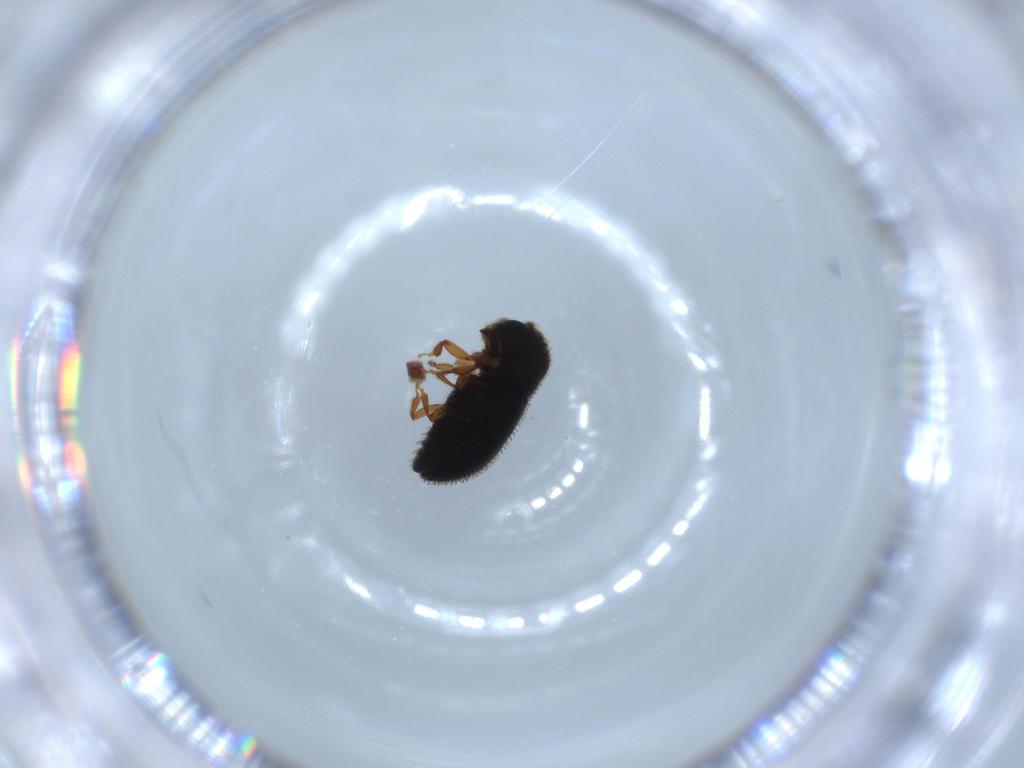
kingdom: Animalia
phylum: Arthropoda
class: Insecta
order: Coleoptera
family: Curculionidae
